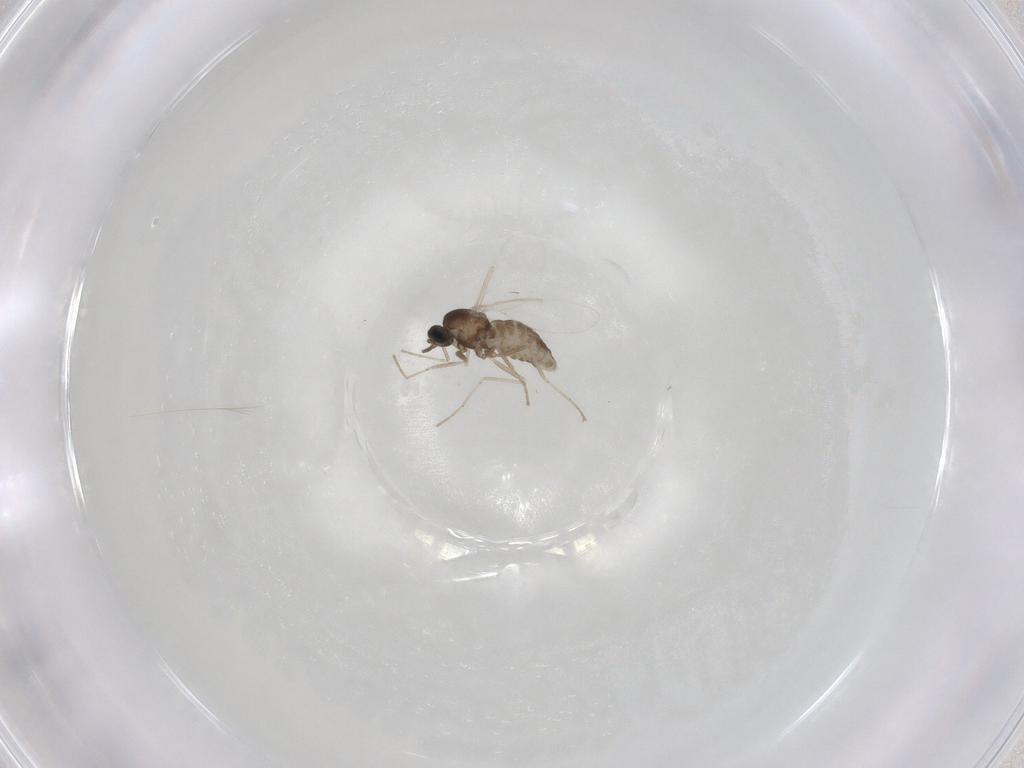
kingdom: Animalia
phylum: Arthropoda
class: Insecta
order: Diptera
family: Cecidomyiidae
